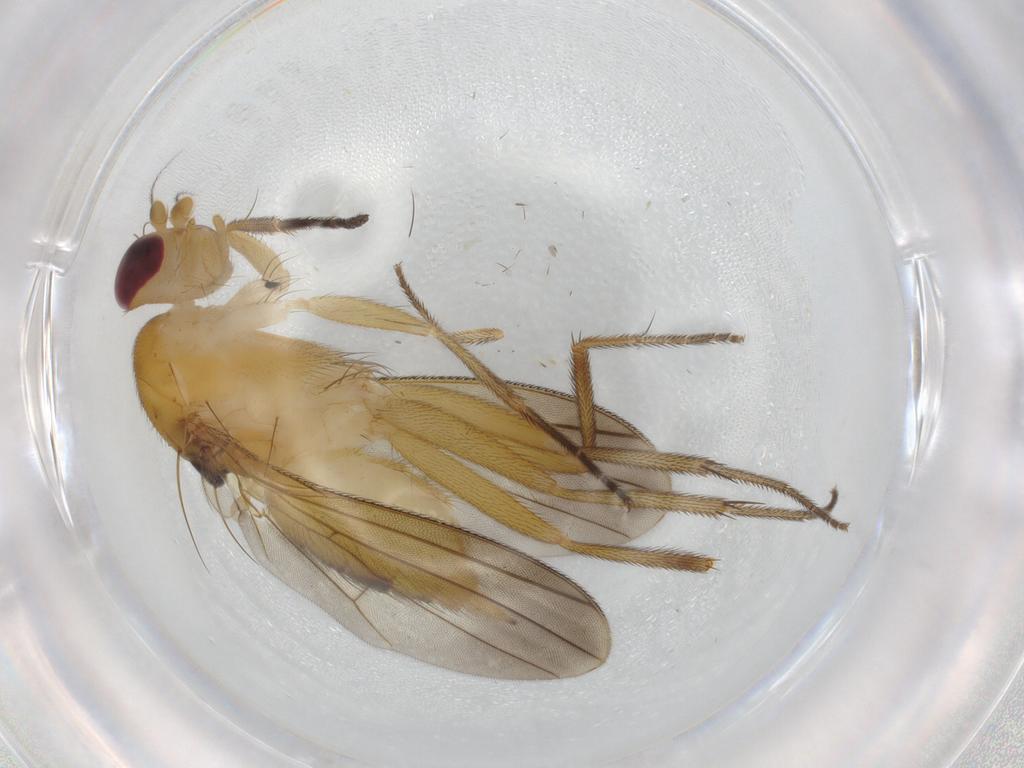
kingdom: Animalia
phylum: Arthropoda
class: Insecta
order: Diptera
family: Clusiidae
